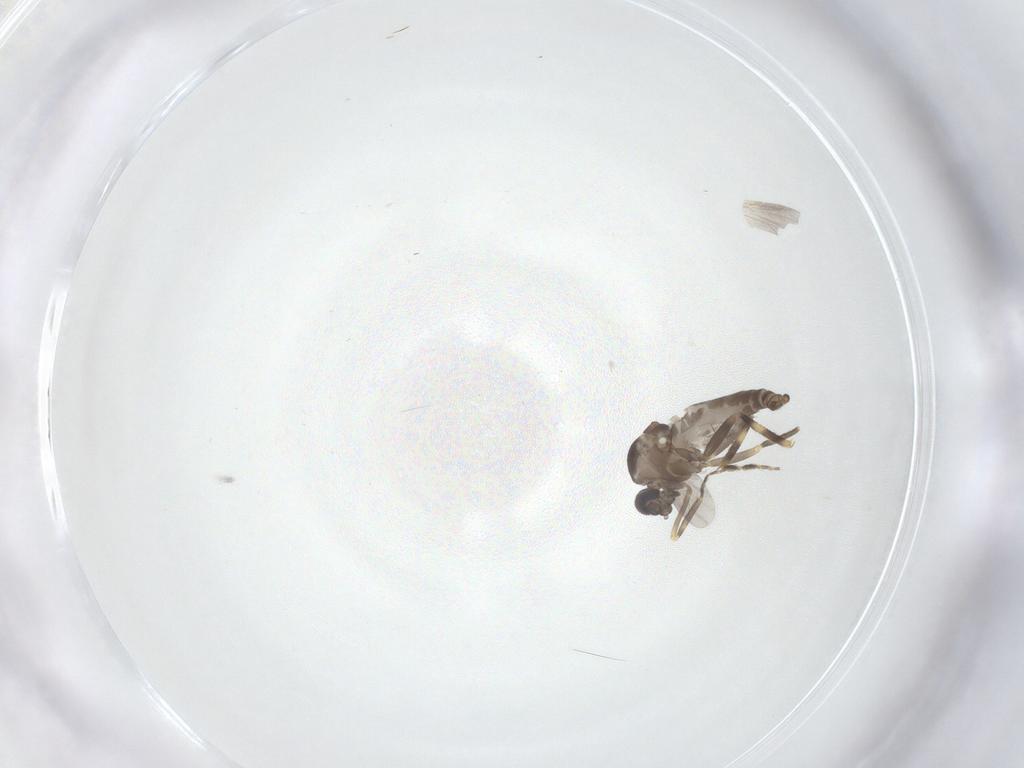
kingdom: Animalia
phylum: Arthropoda
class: Insecta
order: Diptera
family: Ceratopogonidae
